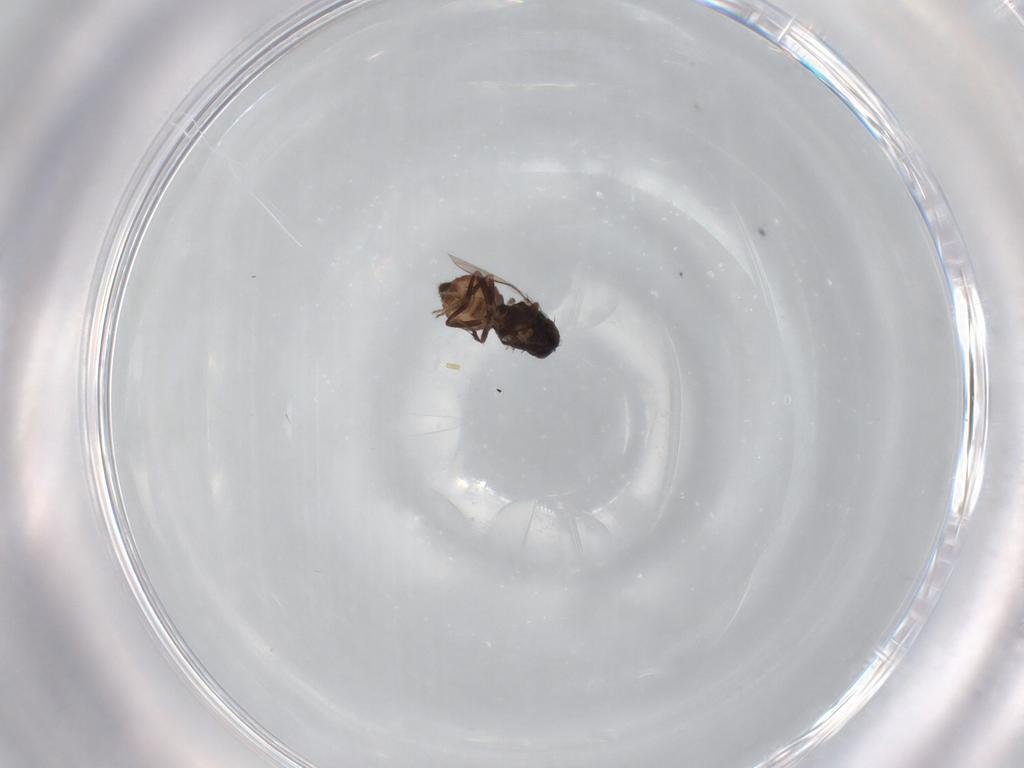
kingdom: Animalia
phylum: Arthropoda
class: Insecta
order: Diptera
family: Sphaeroceridae
